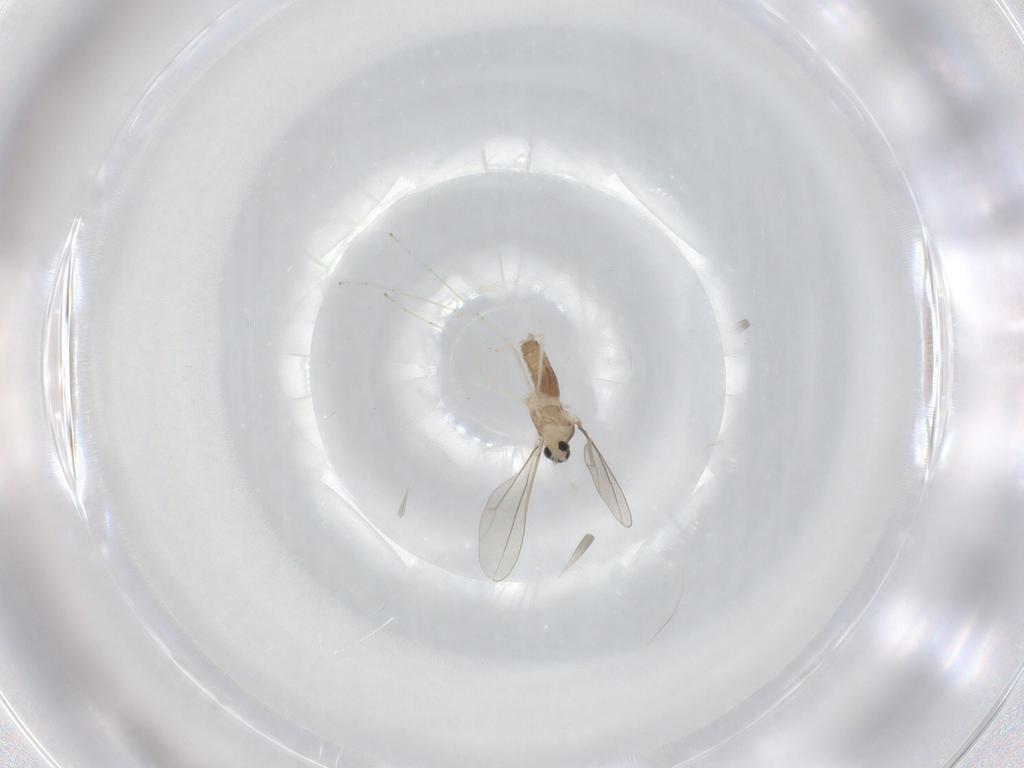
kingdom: Animalia
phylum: Arthropoda
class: Insecta
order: Diptera
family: Cecidomyiidae
